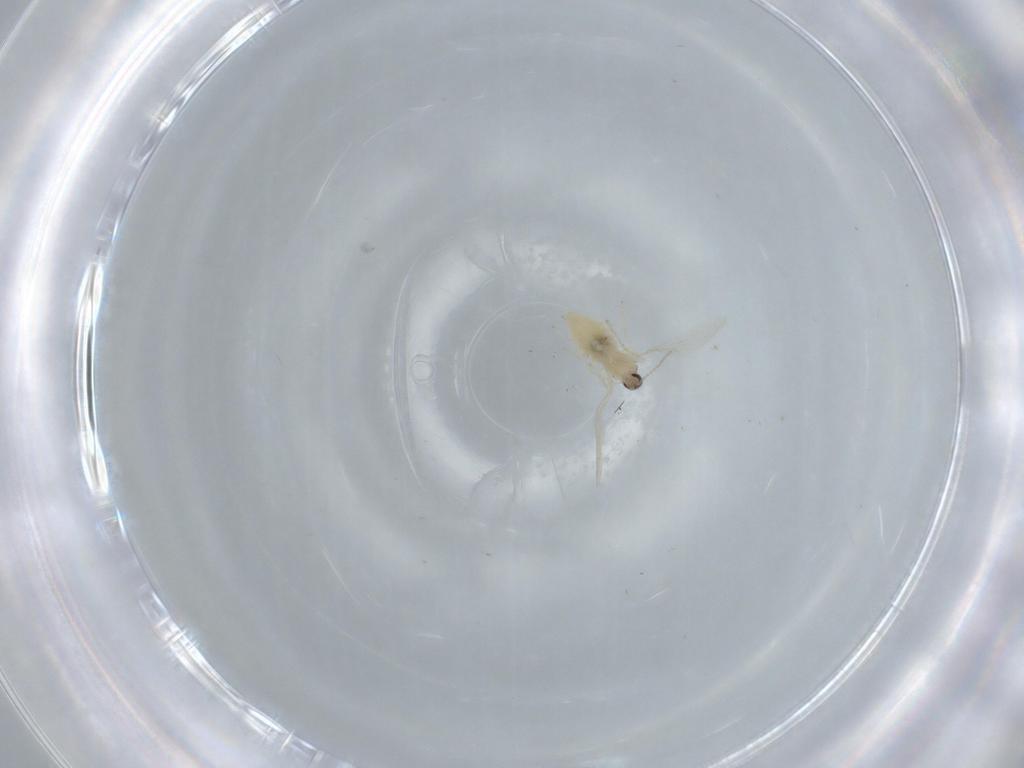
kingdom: Animalia
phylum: Arthropoda
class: Insecta
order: Diptera
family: Cecidomyiidae
